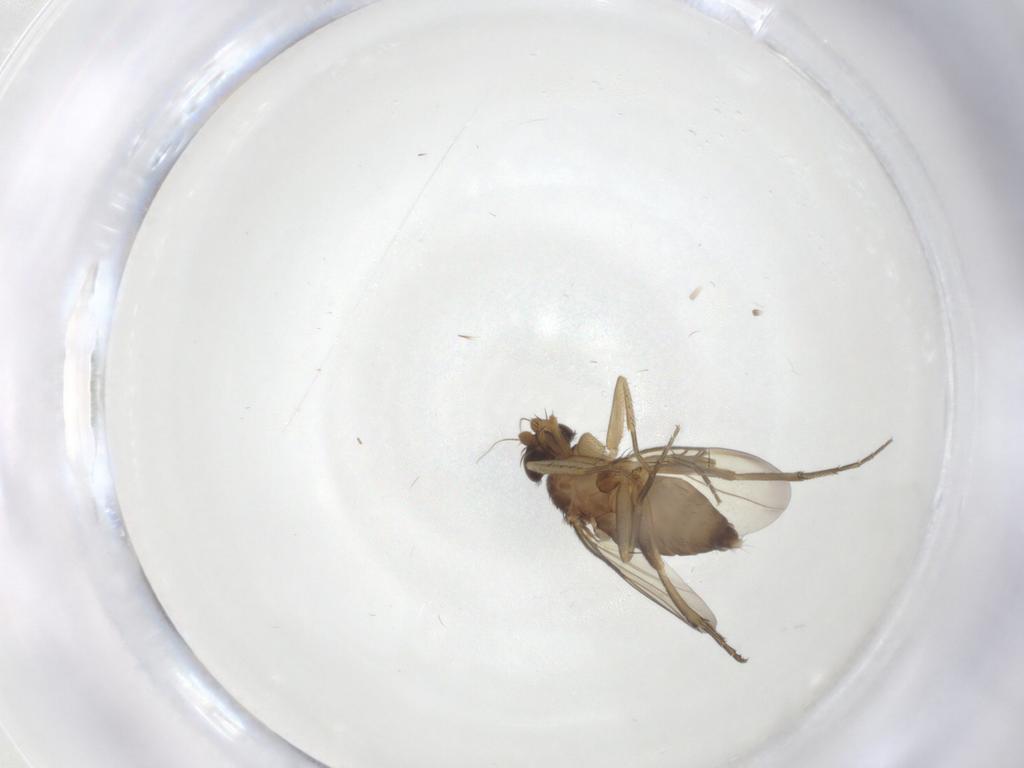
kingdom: Animalia
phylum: Arthropoda
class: Insecta
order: Diptera
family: Phoridae
